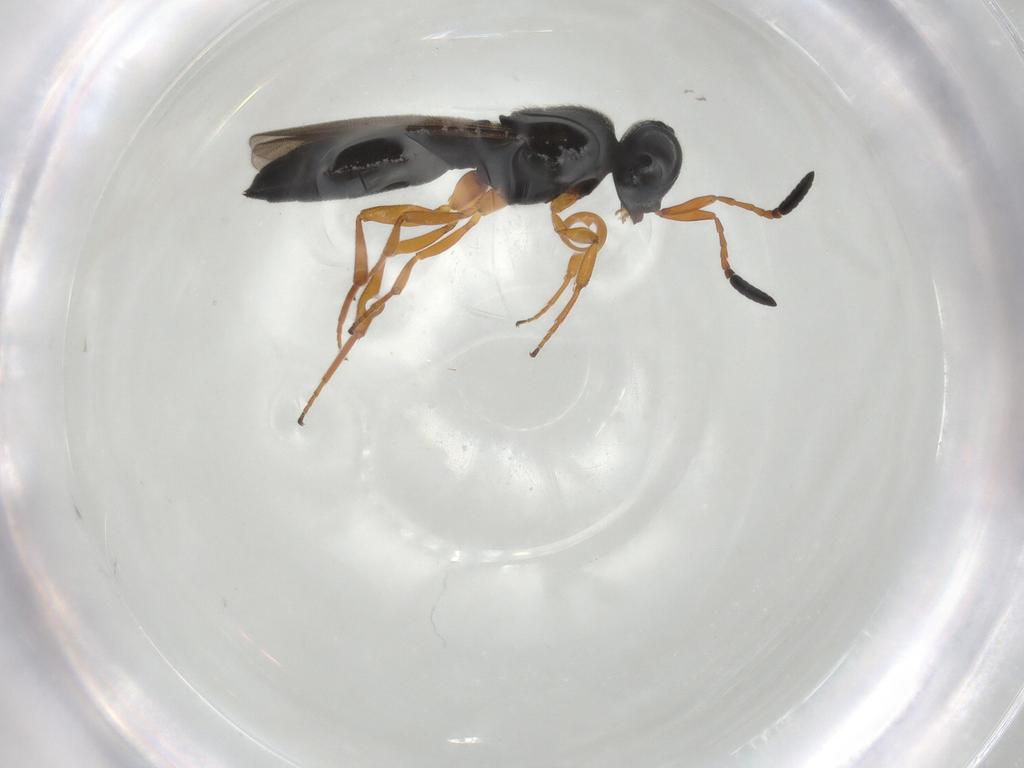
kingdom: Animalia
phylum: Arthropoda
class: Insecta
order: Hymenoptera
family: Scelionidae
